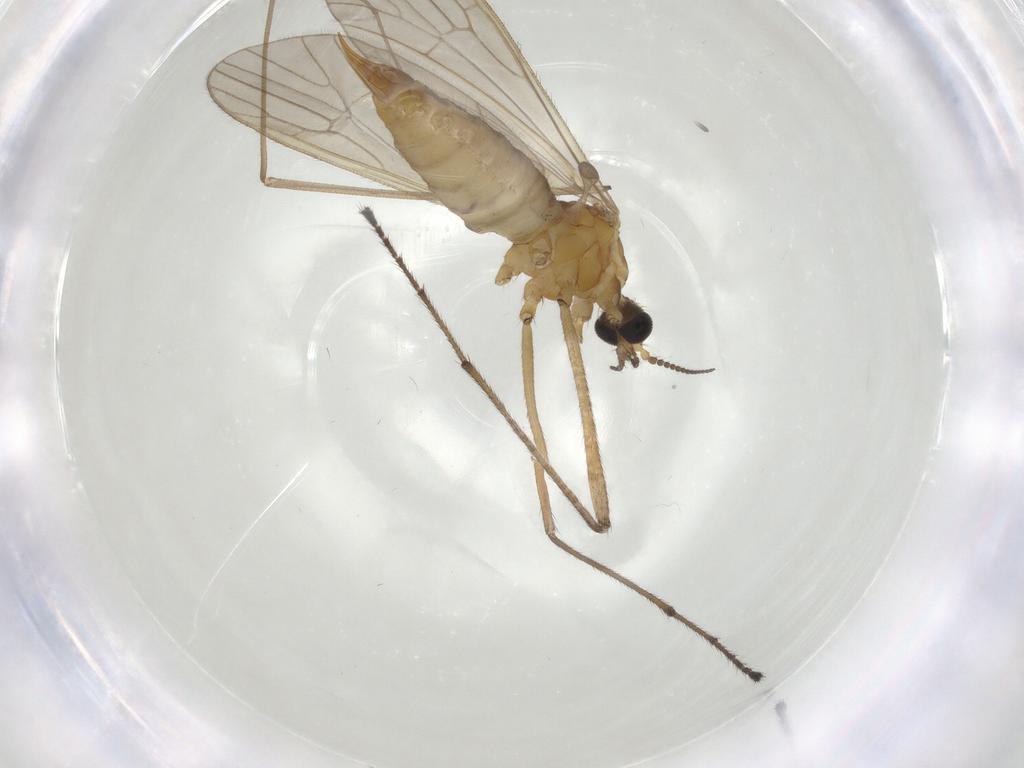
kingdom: Animalia
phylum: Arthropoda
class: Insecta
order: Diptera
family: Limoniidae
